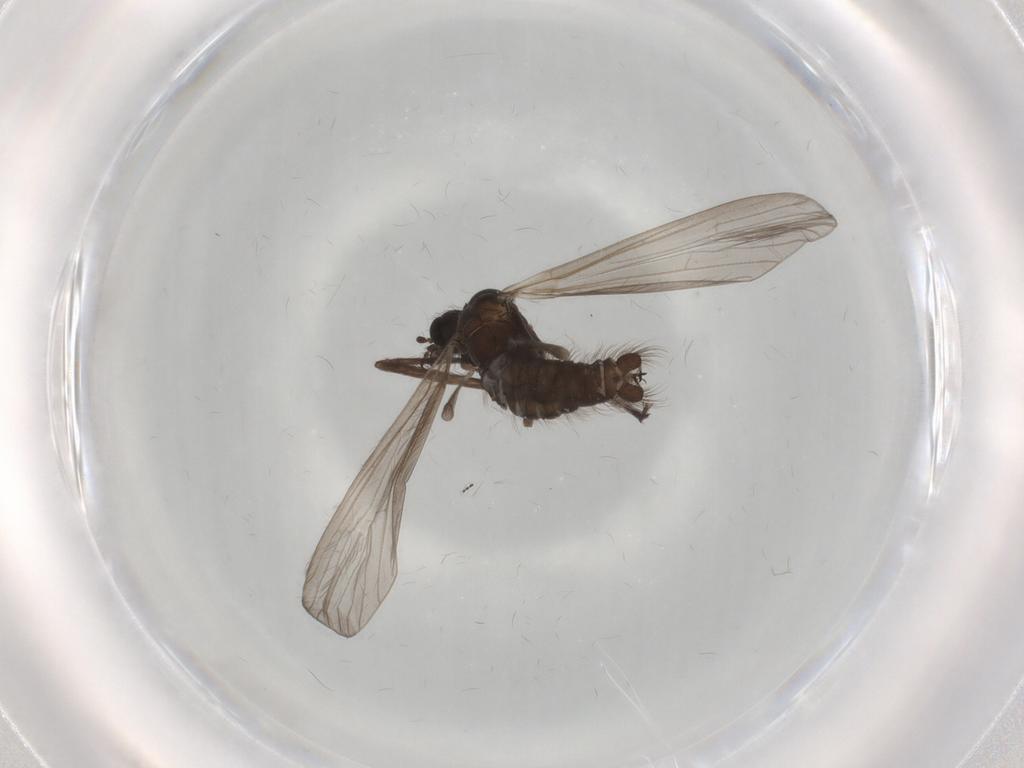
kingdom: Animalia
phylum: Arthropoda
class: Insecta
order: Diptera
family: Limoniidae
